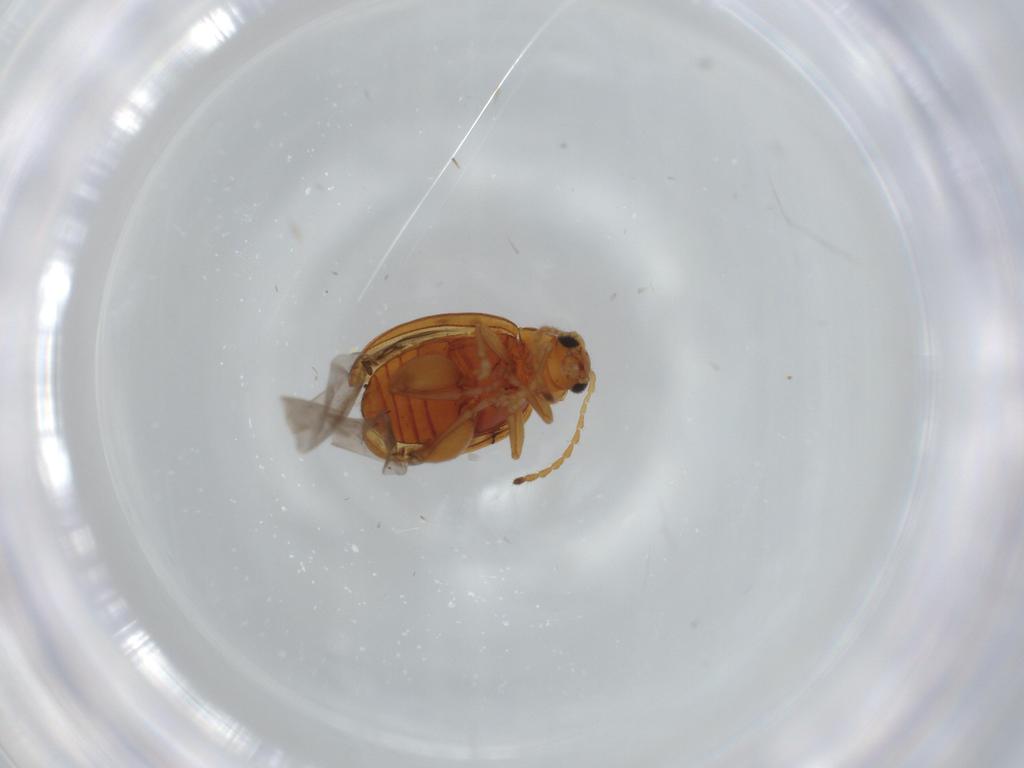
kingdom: Animalia
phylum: Arthropoda
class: Insecta
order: Coleoptera
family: Chrysomelidae
